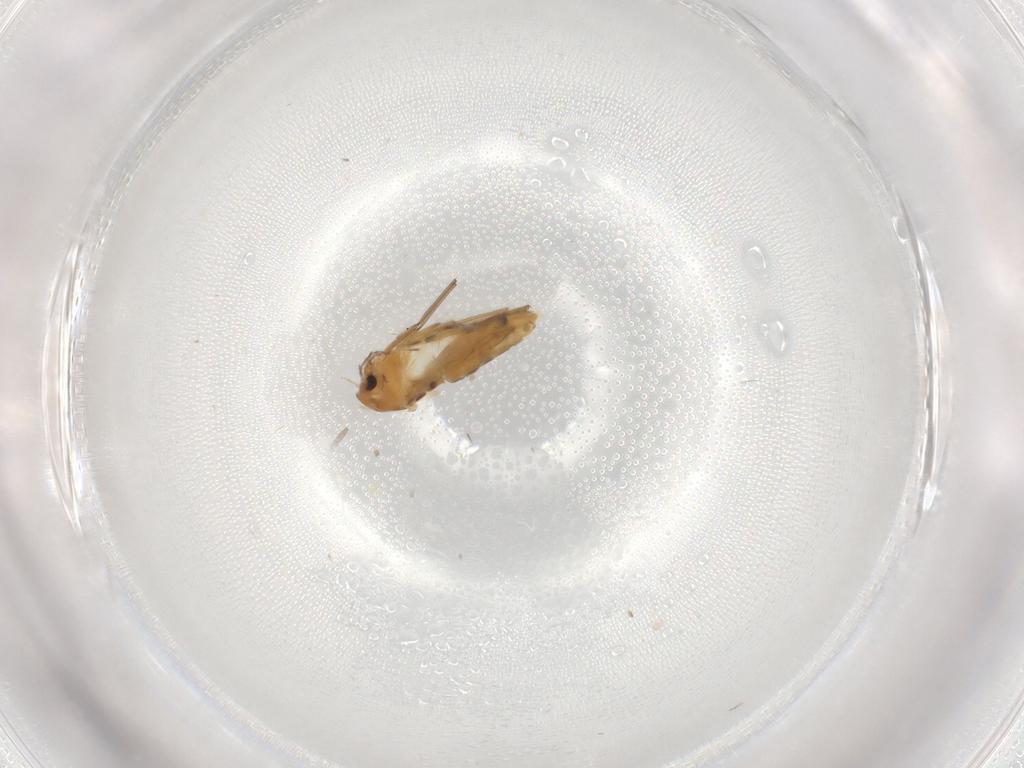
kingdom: Animalia
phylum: Arthropoda
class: Insecta
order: Diptera
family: Ceratopogonidae
